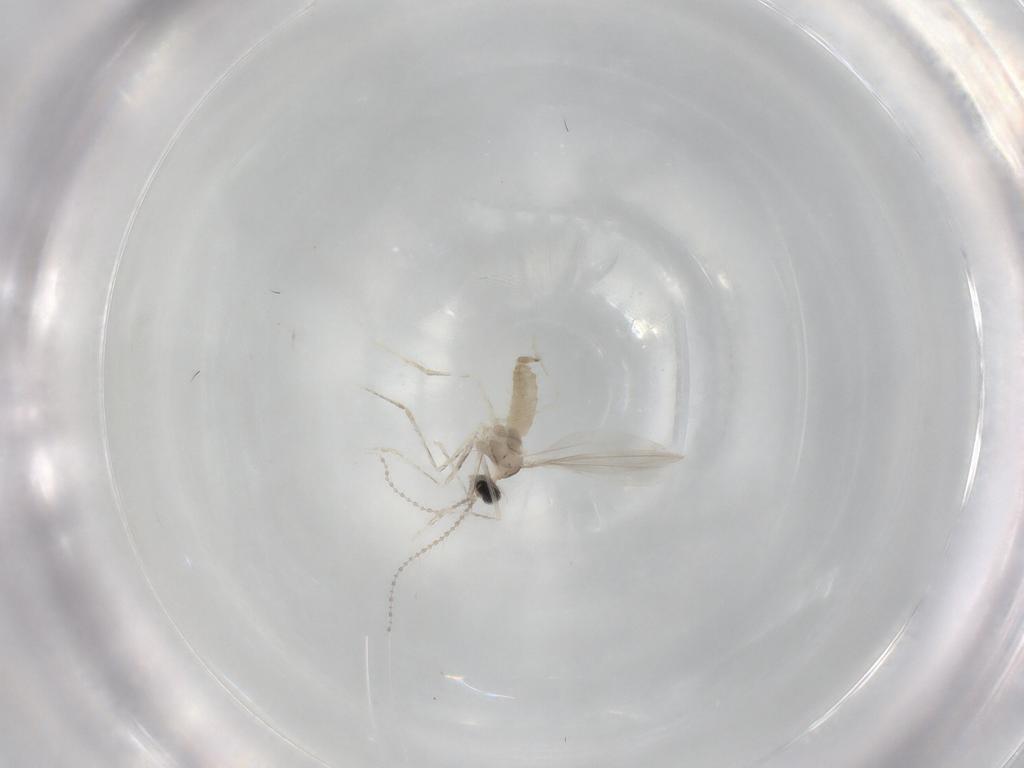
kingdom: Animalia
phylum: Arthropoda
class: Insecta
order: Diptera
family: Cecidomyiidae
